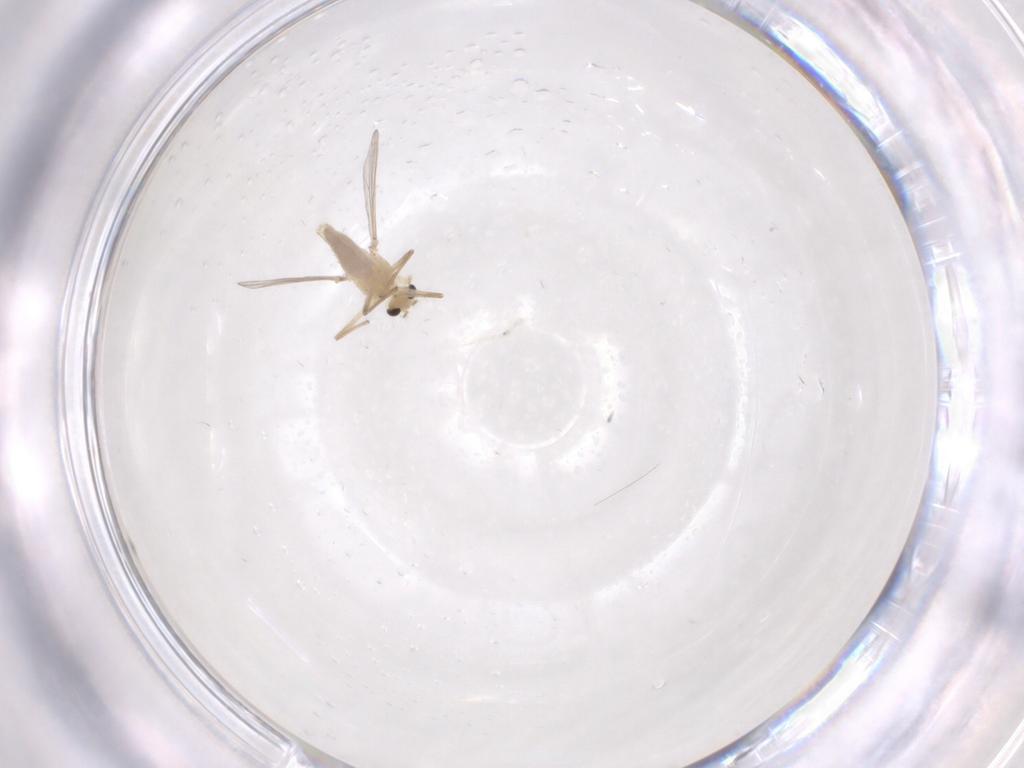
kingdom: Animalia
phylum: Arthropoda
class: Insecta
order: Diptera
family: Chironomidae
